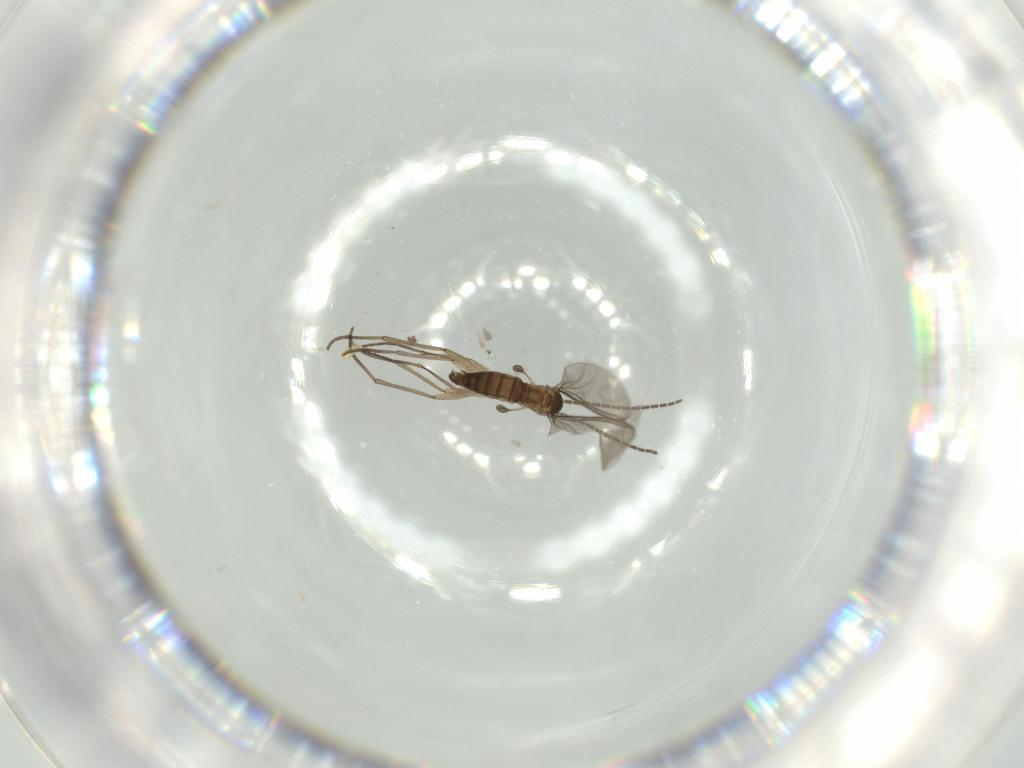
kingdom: Animalia
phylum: Arthropoda
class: Insecta
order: Diptera
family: Sciaridae
